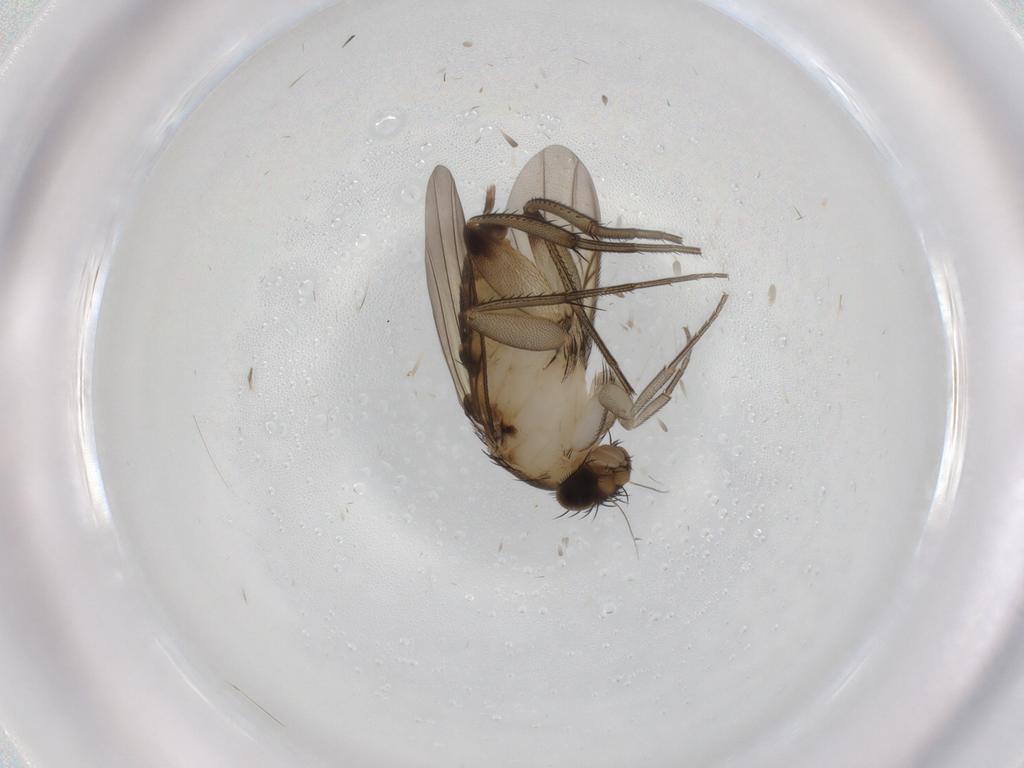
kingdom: Animalia
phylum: Arthropoda
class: Insecta
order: Diptera
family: Phoridae
